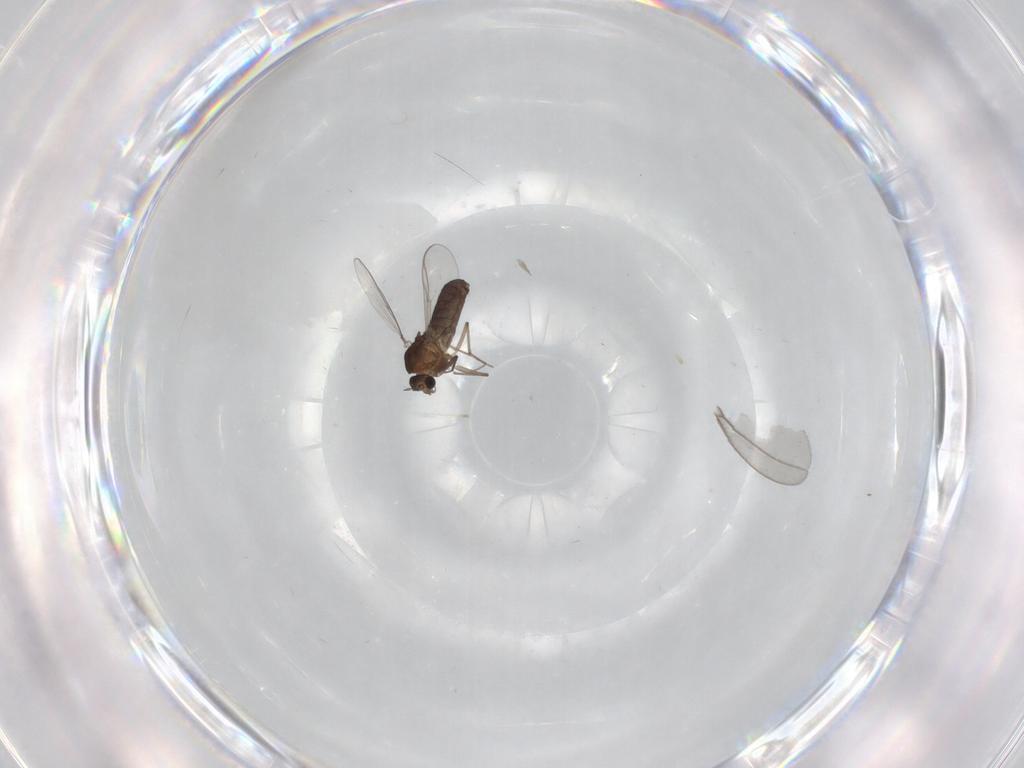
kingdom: Animalia
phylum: Arthropoda
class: Insecta
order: Diptera
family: Chironomidae
